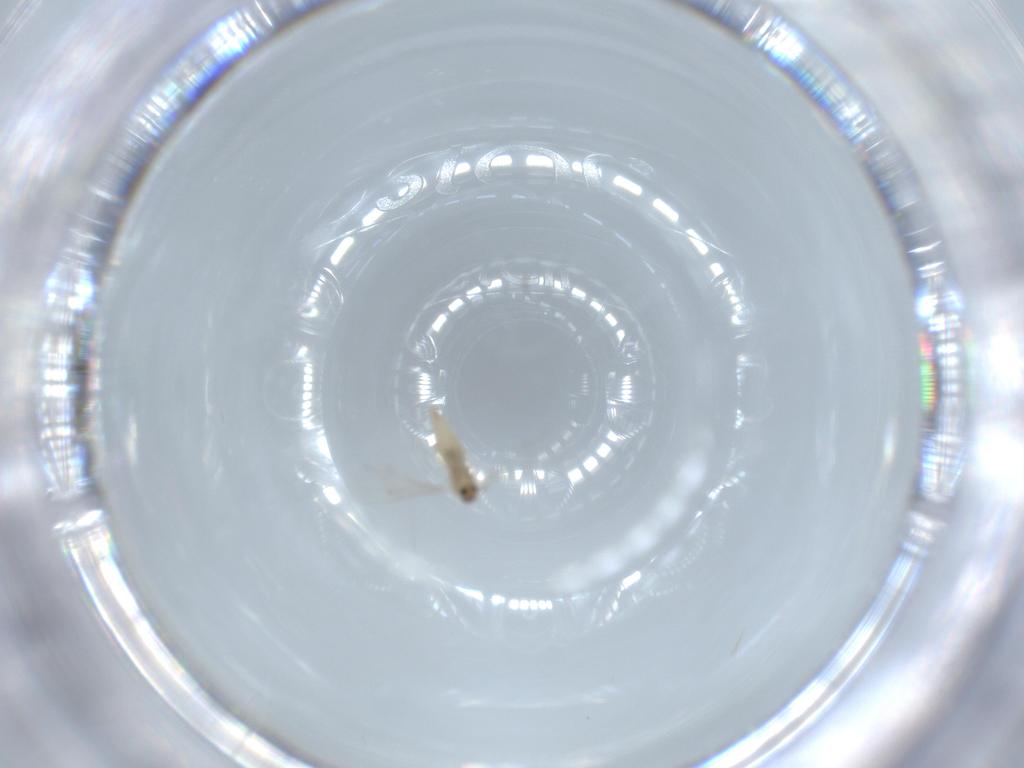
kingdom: Animalia
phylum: Arthropoda
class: Insecta
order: Diptera
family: Cecidomyiidae
